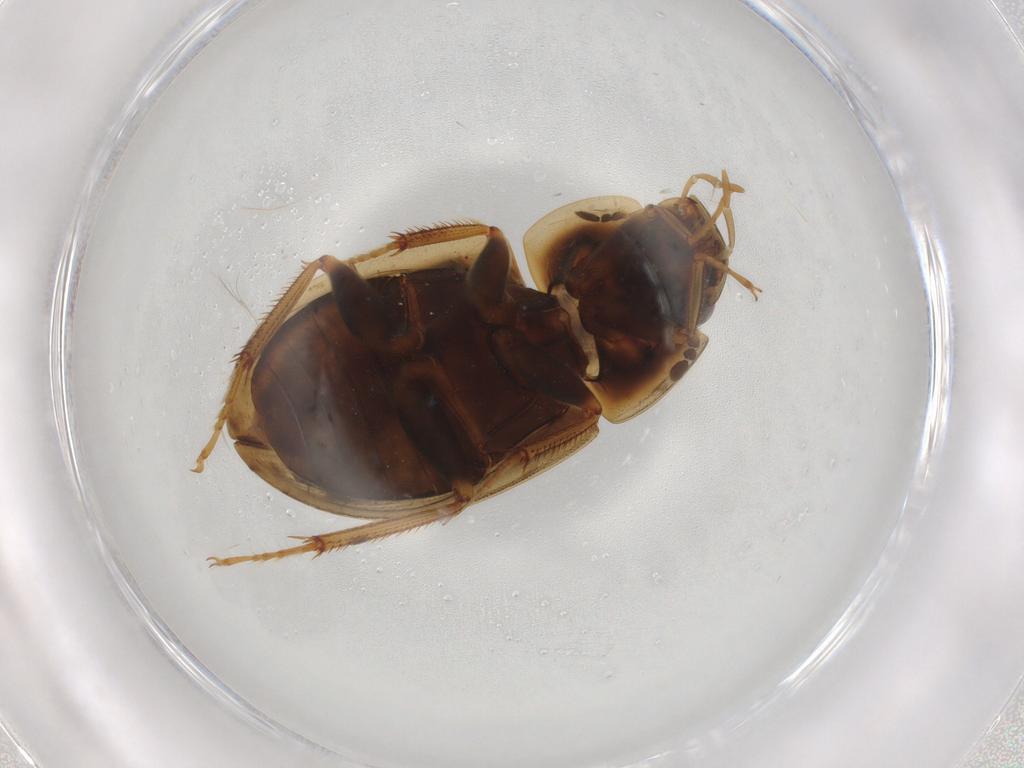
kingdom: Animalia
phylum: Arthropoda
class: Insecta
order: Coleoptera
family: Hydrophilidae
